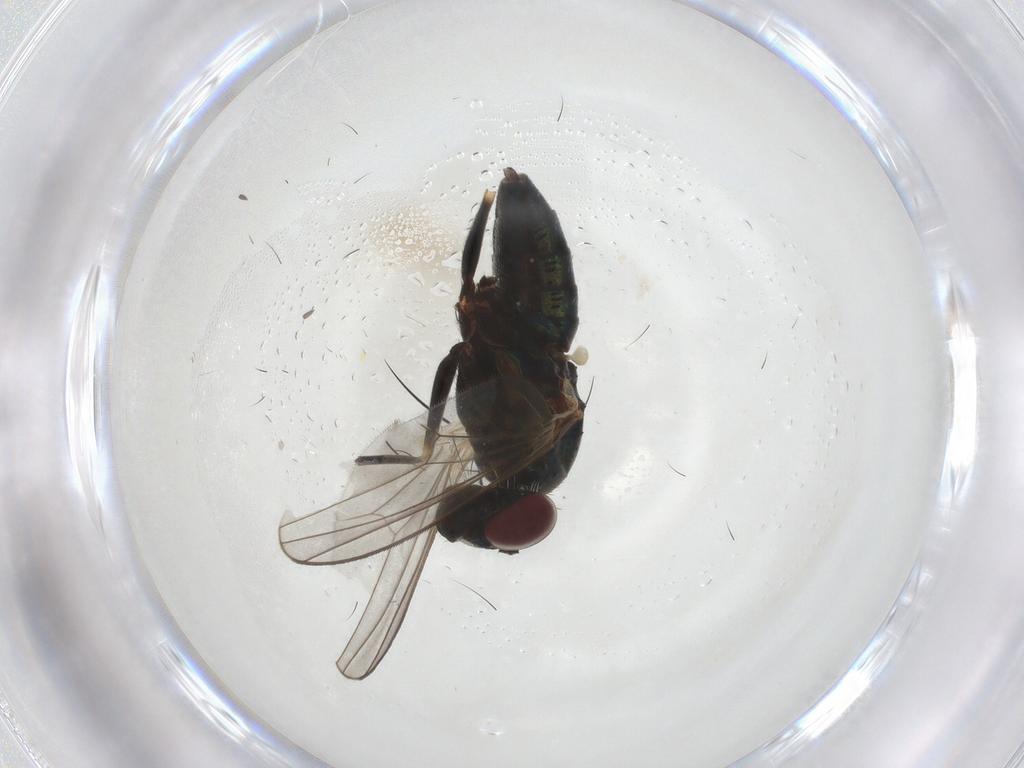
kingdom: Animalia
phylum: Arthropoda
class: Insecta
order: Diptera
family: Dolichopodidae
